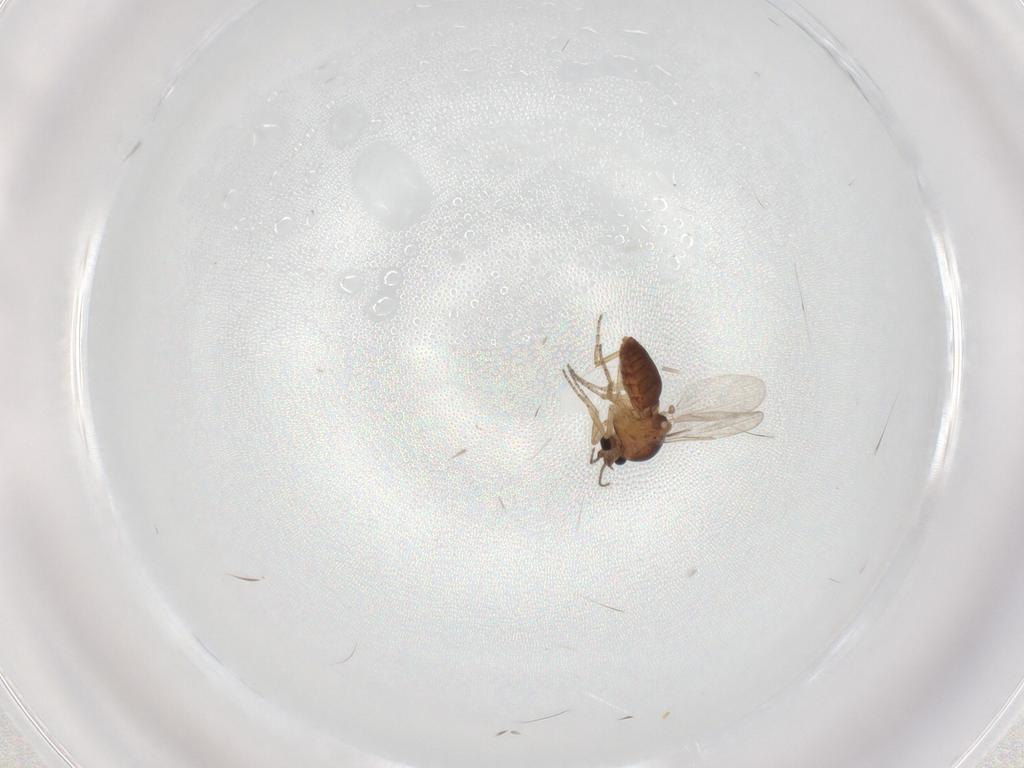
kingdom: Animalia
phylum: Arthropoda
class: Insecta
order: Diptera
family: Ceratopogonidae
